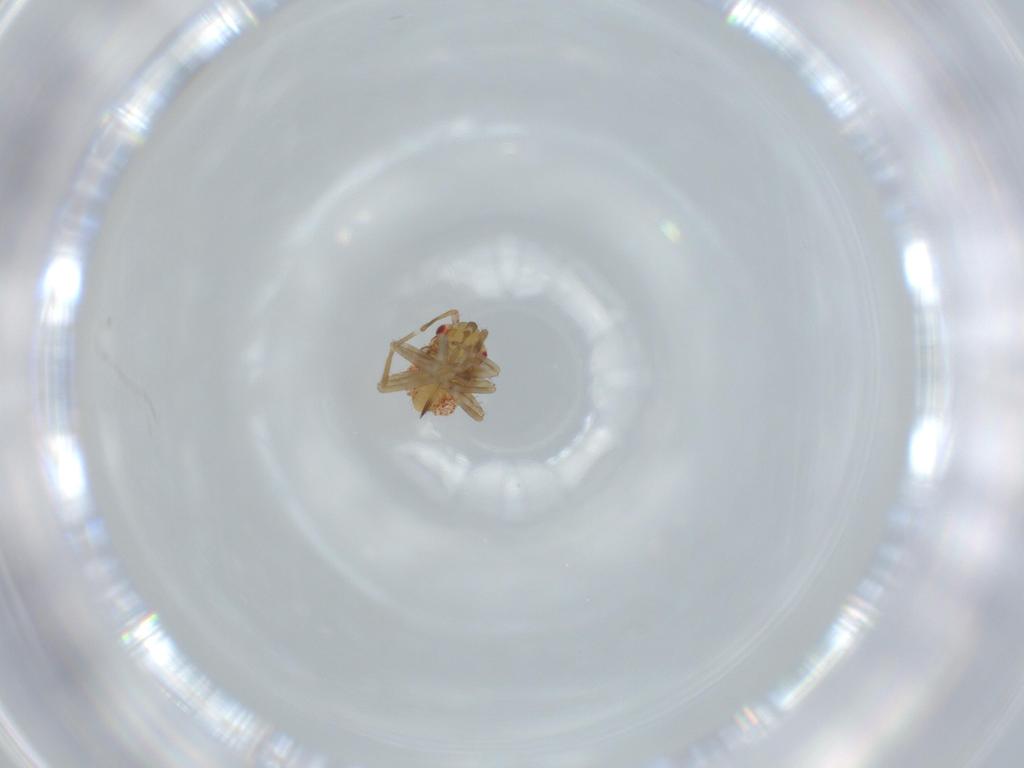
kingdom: Animalia
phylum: Arthropoda
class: Insecta
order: Hemiptera
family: Miridae
